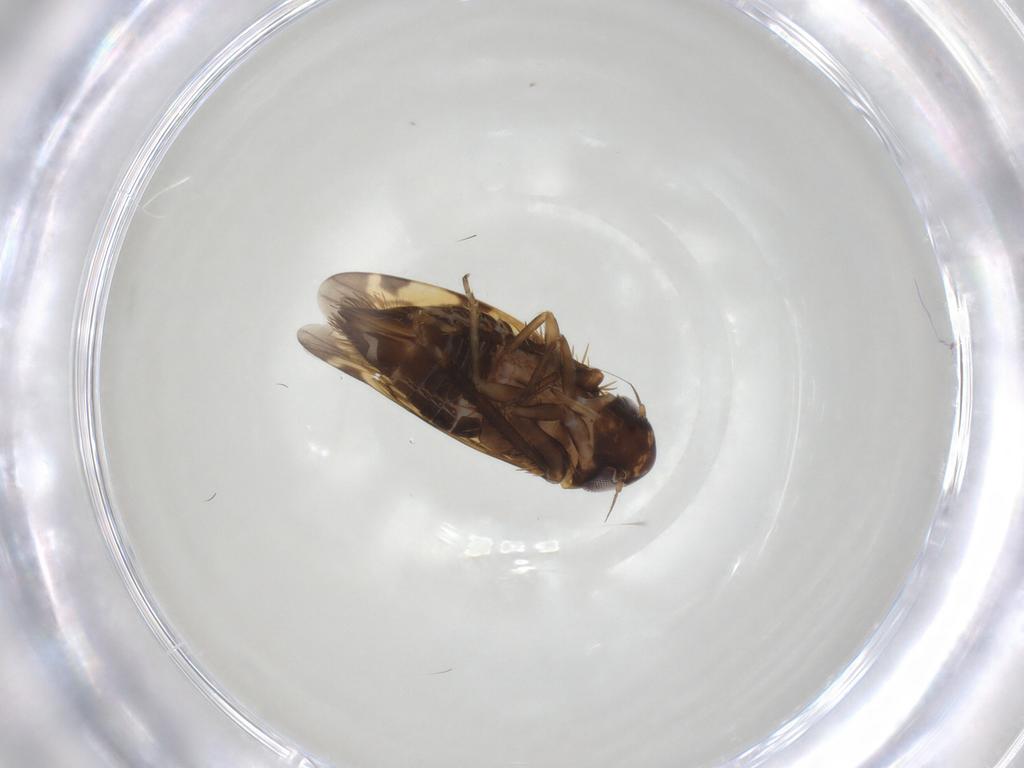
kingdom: Animalia
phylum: Arthropoda
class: Insecta
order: Hemiptera
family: Cicadellidae
